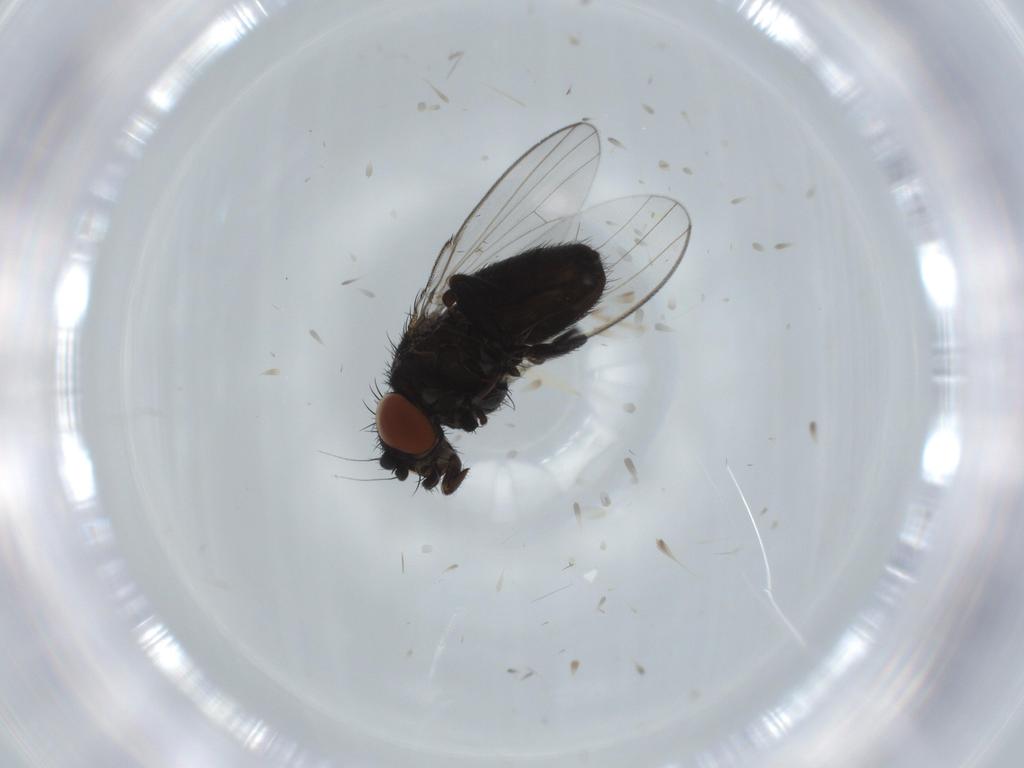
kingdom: Animalia
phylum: Arthropoda
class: Insecta
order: Diptera
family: Milichiidae
